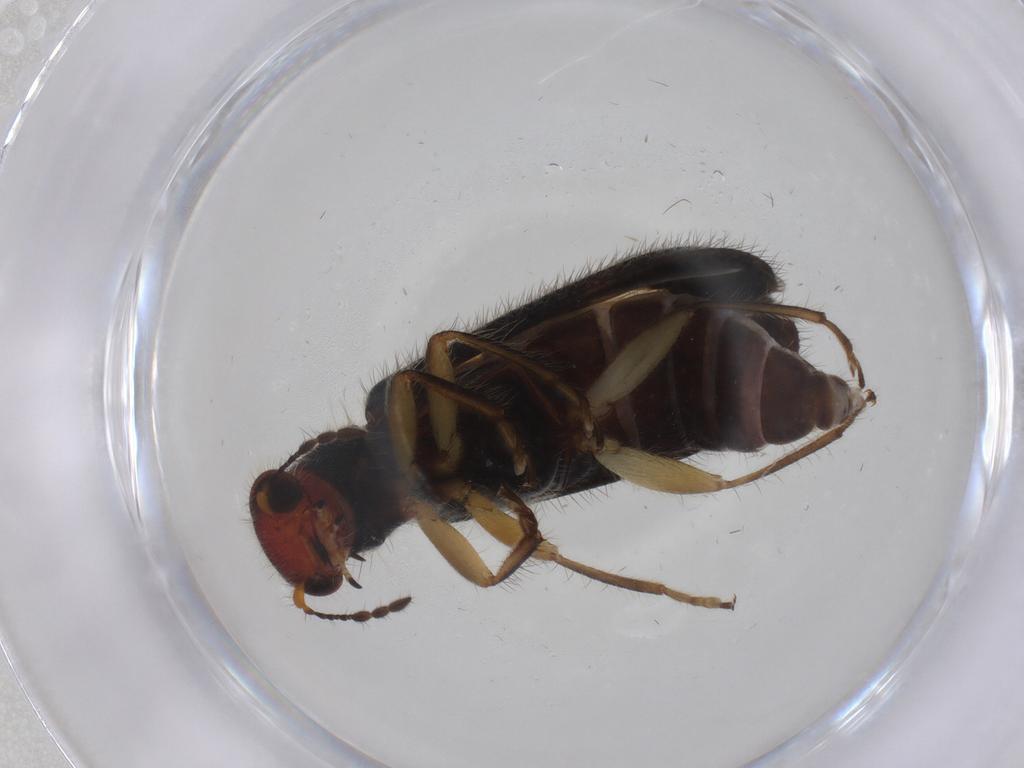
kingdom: Animalia
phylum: Arthropoda
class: Insecta
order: Coleoptera
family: Cleridae
